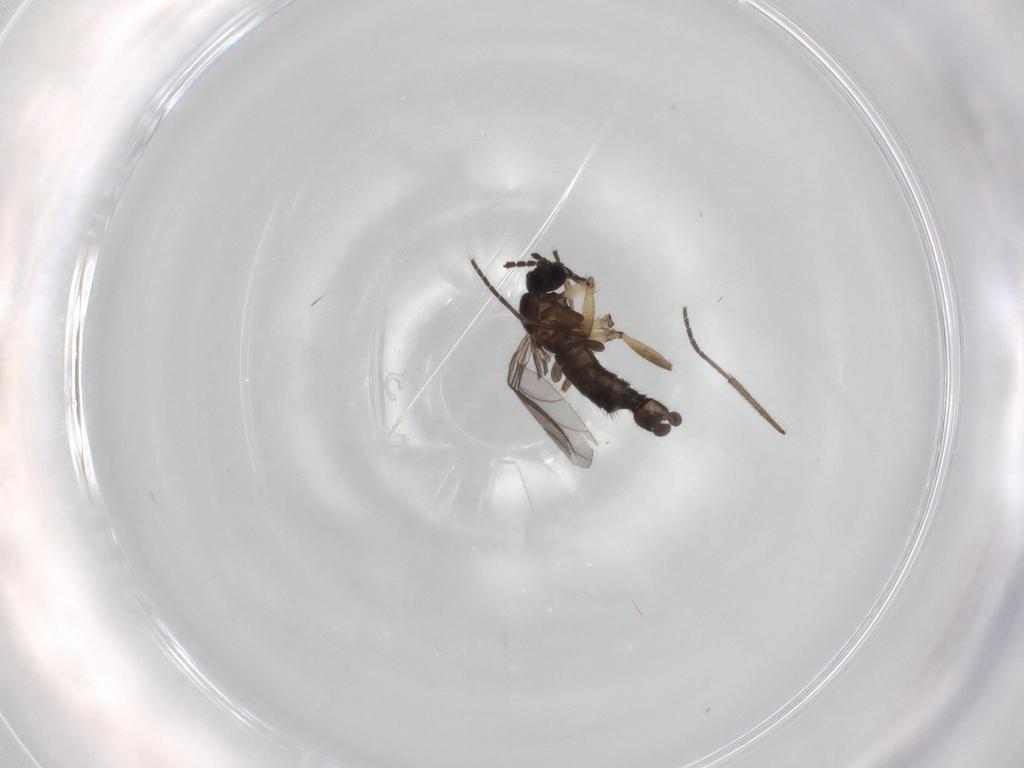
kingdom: Animalia
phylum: Arthropoda
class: Insecta
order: Diptera
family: Sciaridae
